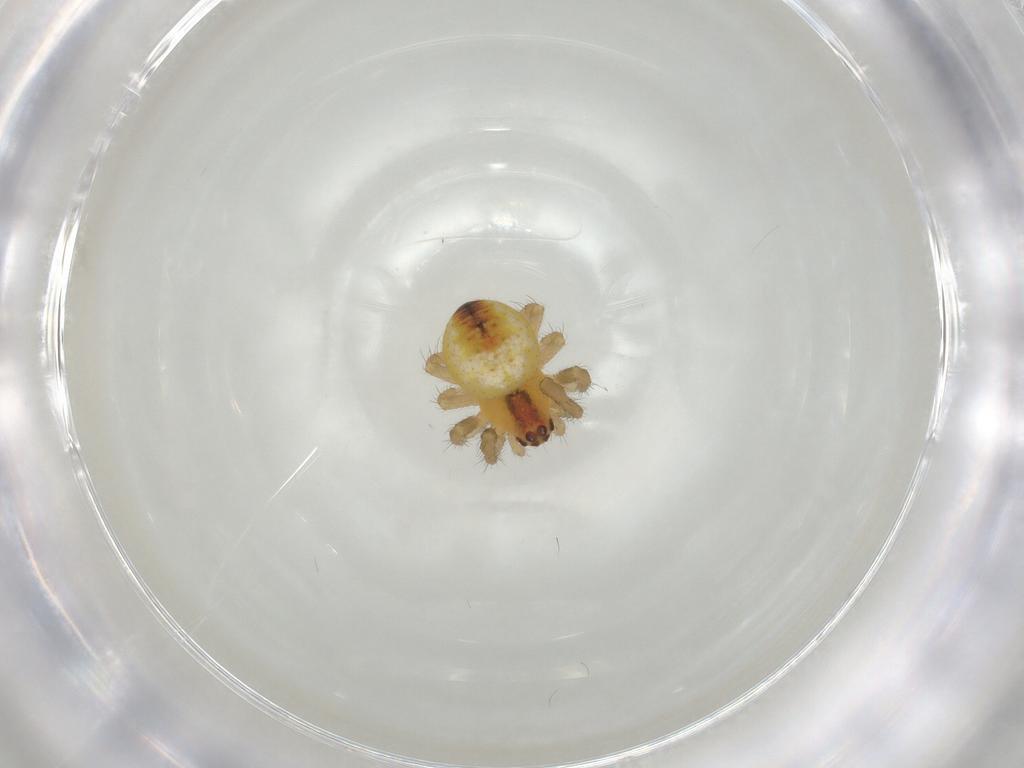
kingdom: Animalia
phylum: Arthropoda
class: Arachnida
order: Araneae
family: Araneidae
